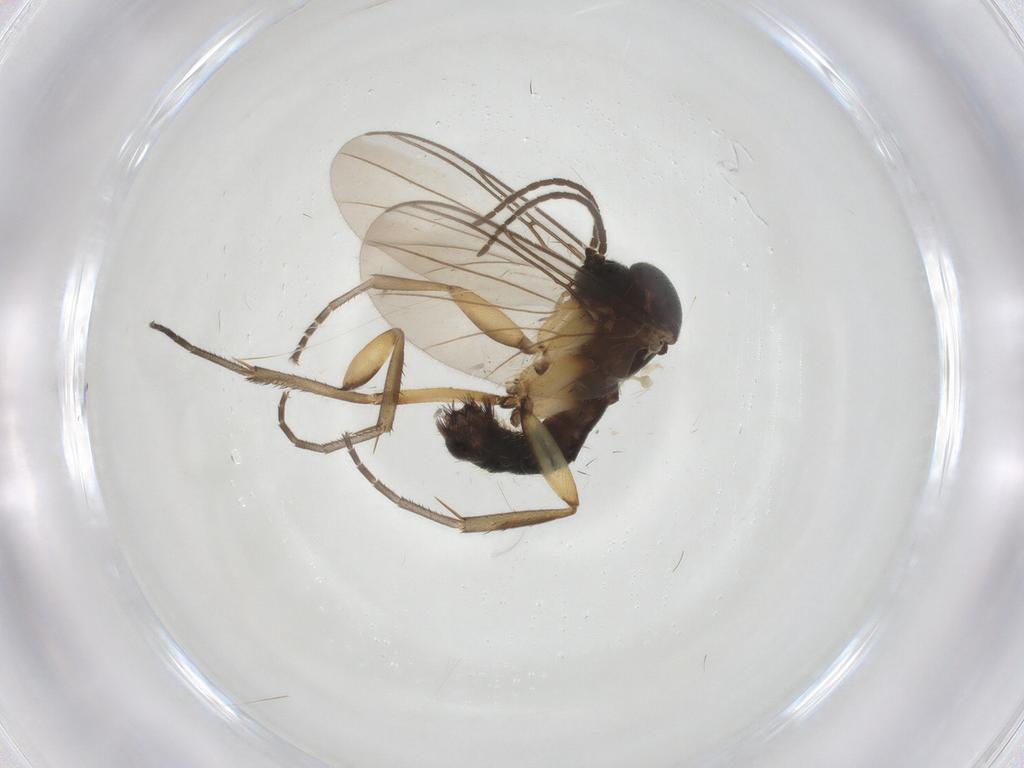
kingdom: Animalia
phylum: Arthropoda
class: Insecta
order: Diptera
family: Mycetophilidae
